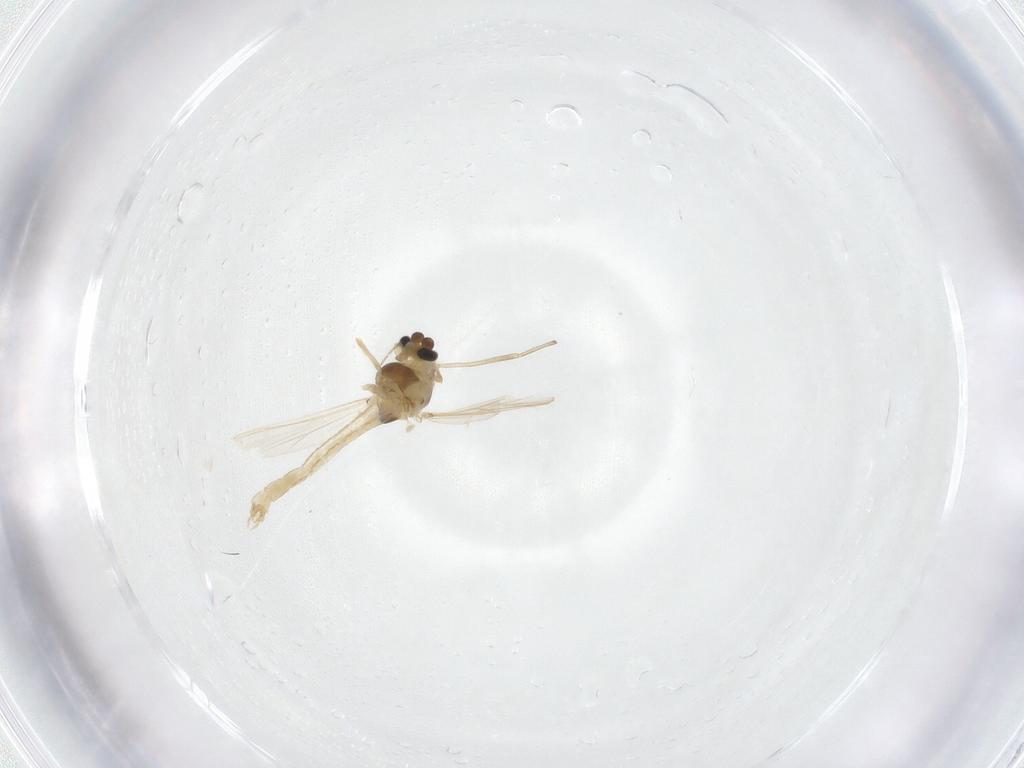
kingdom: Animalia
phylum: Arthropoda
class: Insecta
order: Diptera
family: Chironomidae
